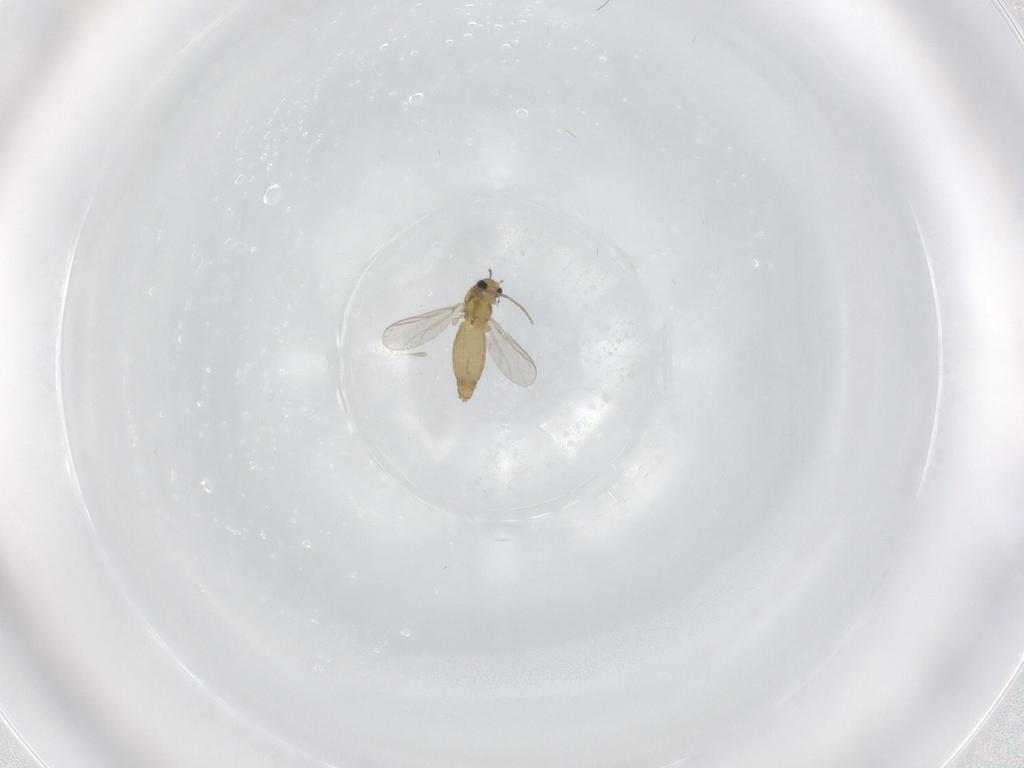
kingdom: Animalia
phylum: Arthropoda
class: Insecta
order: Diptera
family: Chironomidae
